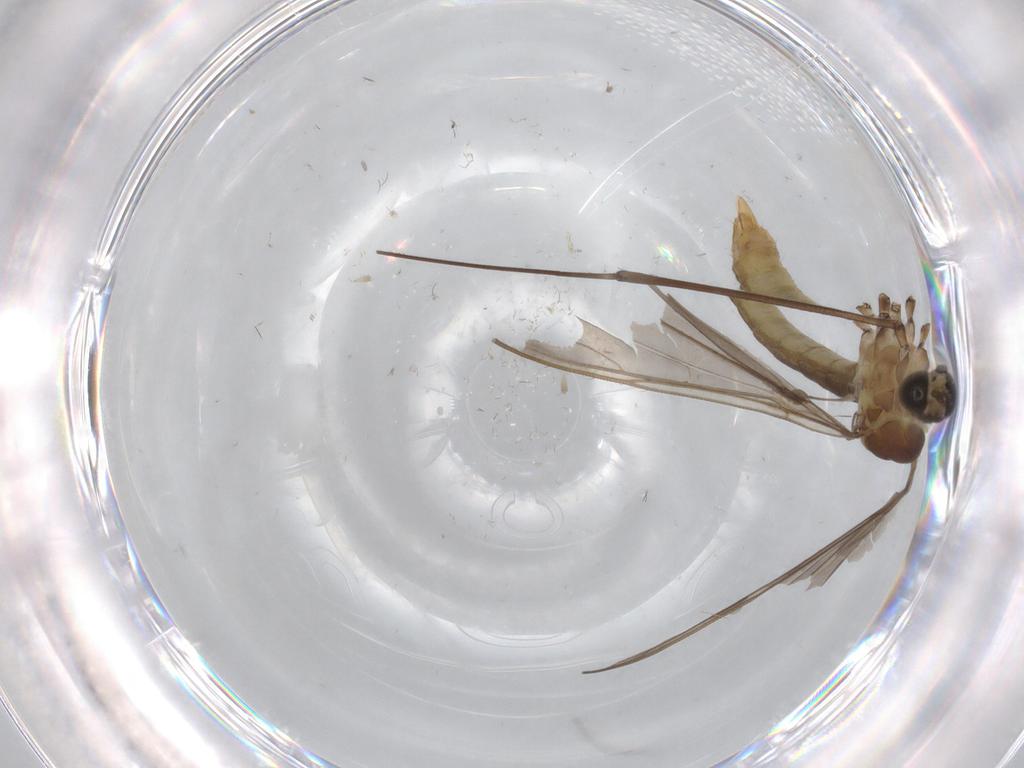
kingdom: Animalia
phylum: Arthropoda
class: Insecta
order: Diptera
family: Limoniidae
